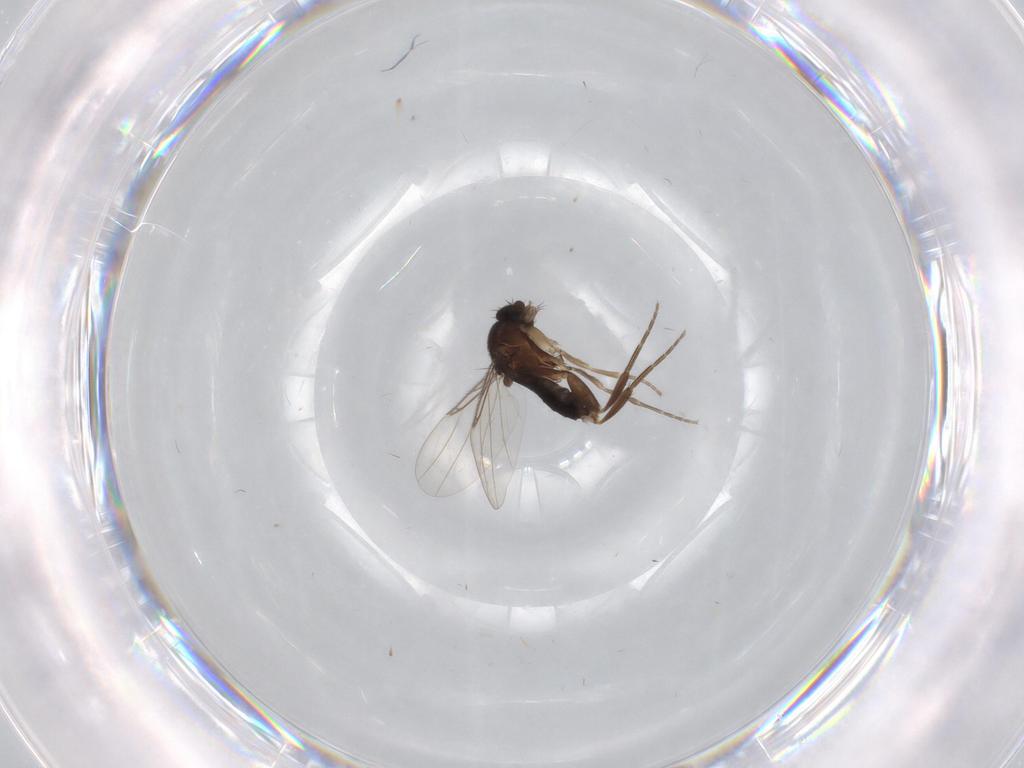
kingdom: Animalia
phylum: Arthropoda
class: Insecta
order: Diptera
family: Phoridae
